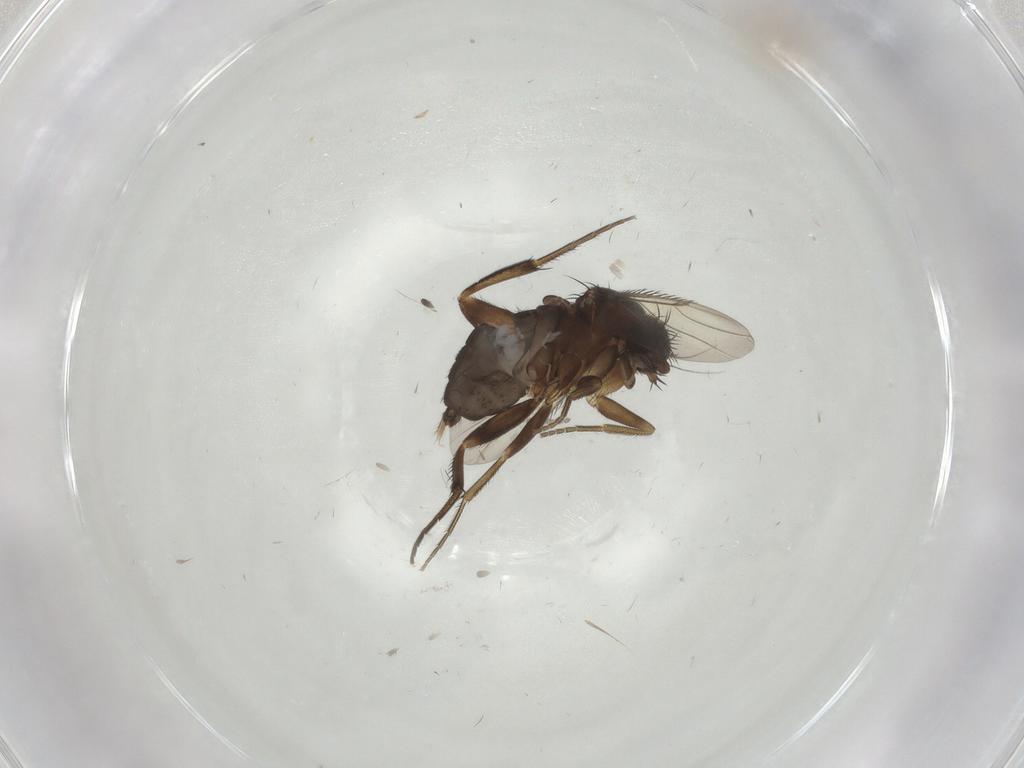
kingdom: Animalia
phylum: Arthropoda
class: Insecta
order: Diptera
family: Phoridae
